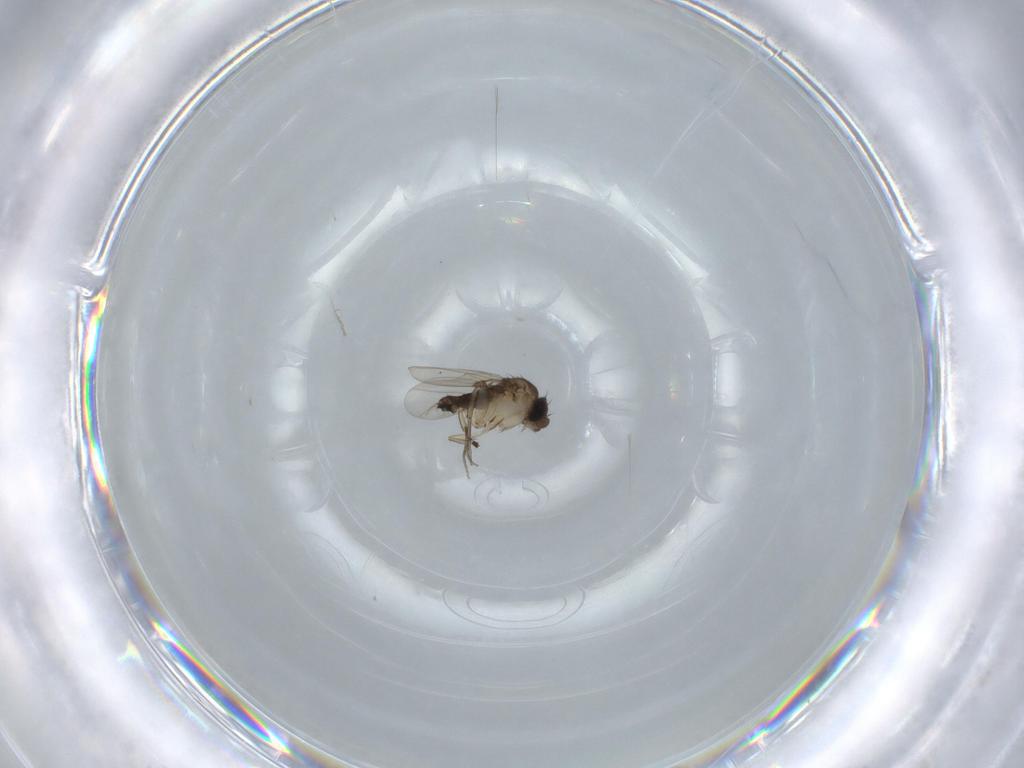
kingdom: Animalia
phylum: Arthropoda
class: Insecta
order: Diptera
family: Phoridae
